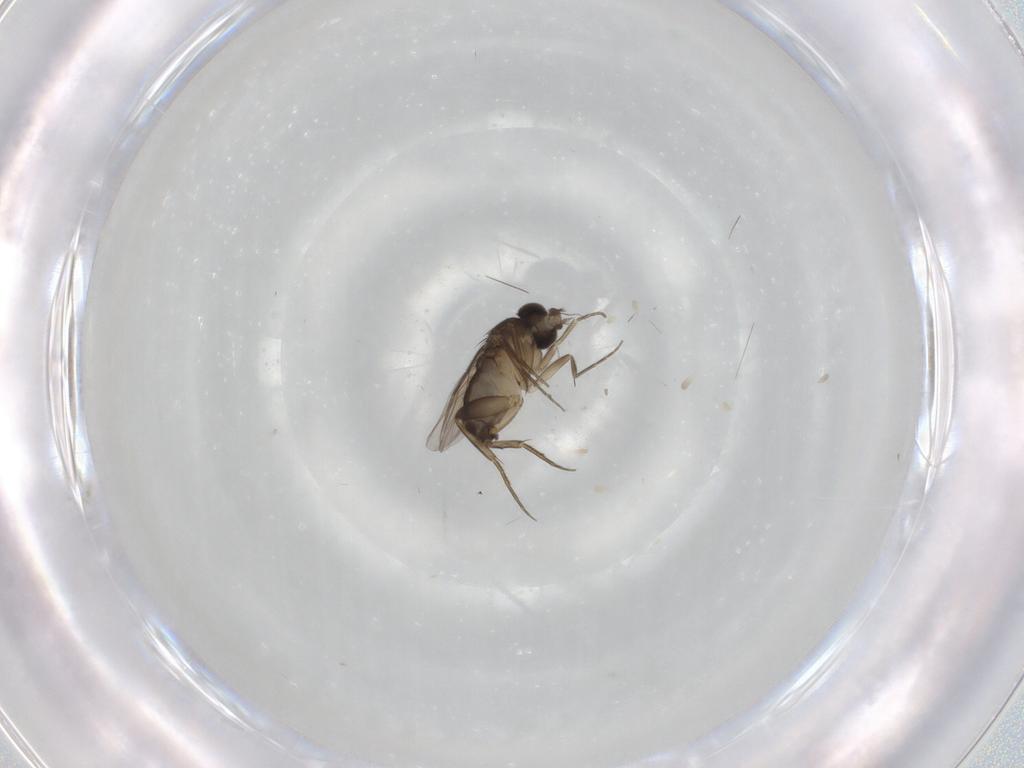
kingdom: Animalia
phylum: Arthropoda
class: Insecta
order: Diptera
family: Phoridae
